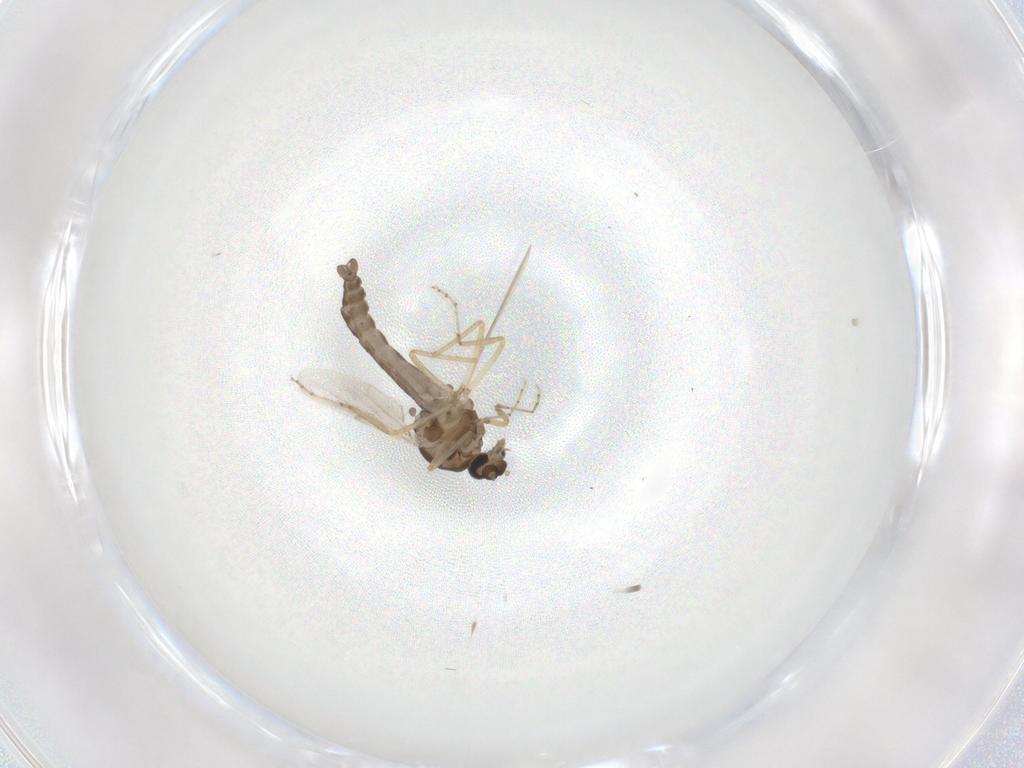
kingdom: Animalia
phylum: Arthropoda
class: Insecta
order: Diptera
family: Ceratopogonidae
